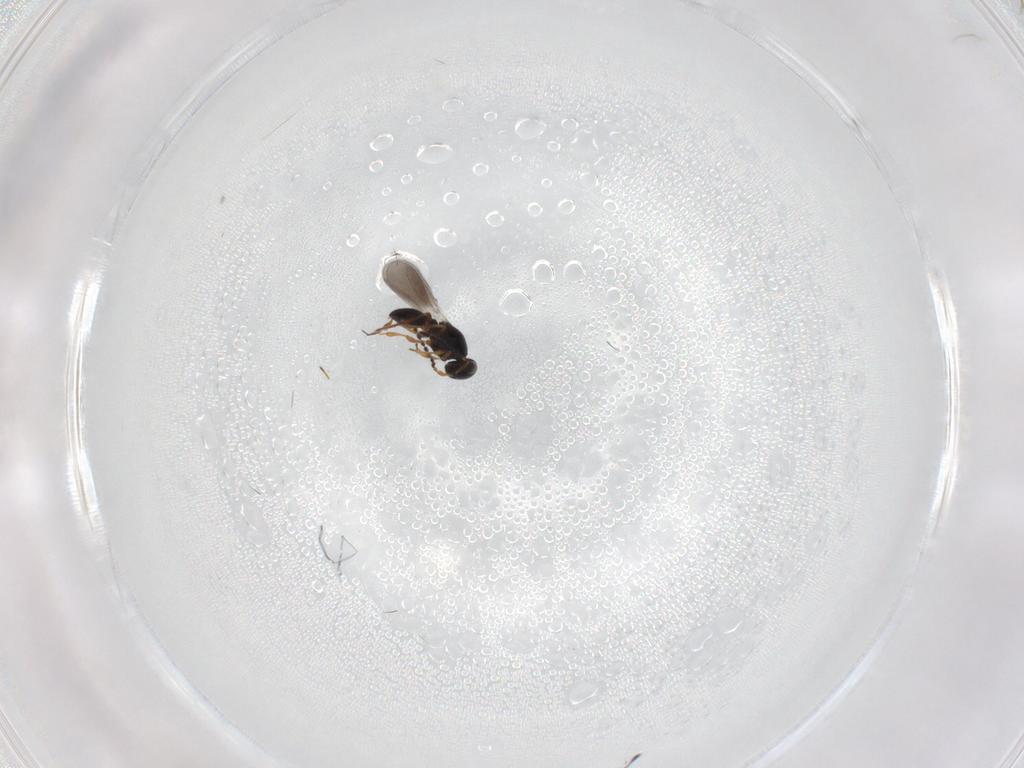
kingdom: Animalia
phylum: Arthropoda
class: Insecta
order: Hymenoptera
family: Platygastridae
